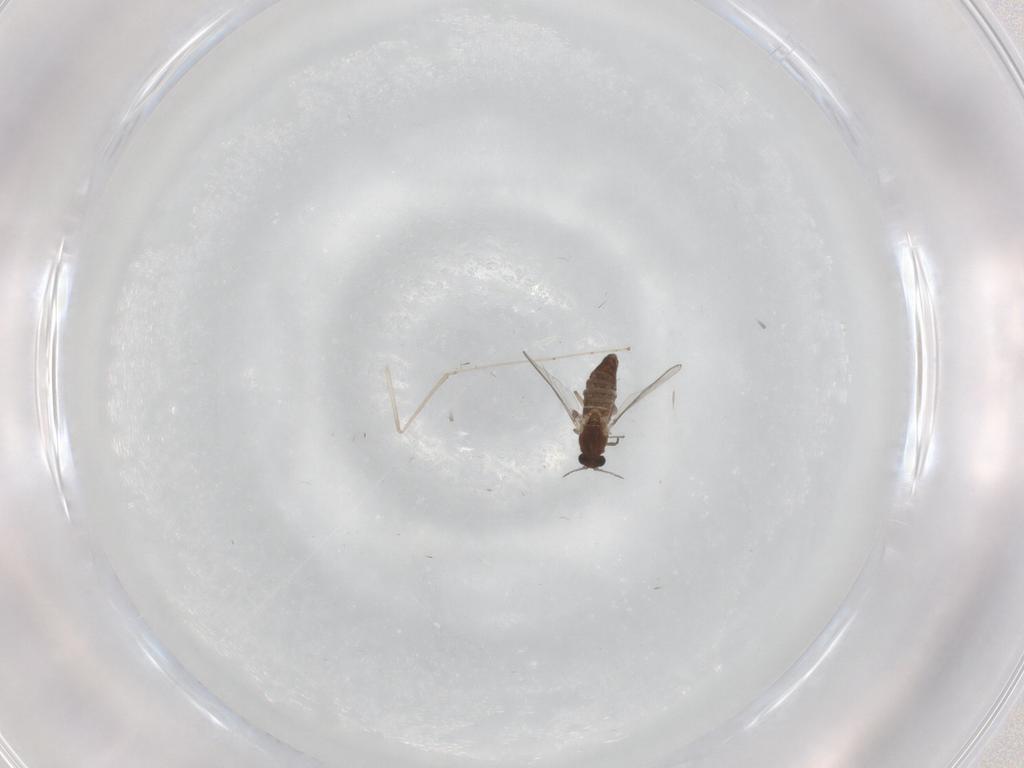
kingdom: Animalia
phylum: Arthropoda
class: Insecta
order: Diptera
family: Chironomidae
